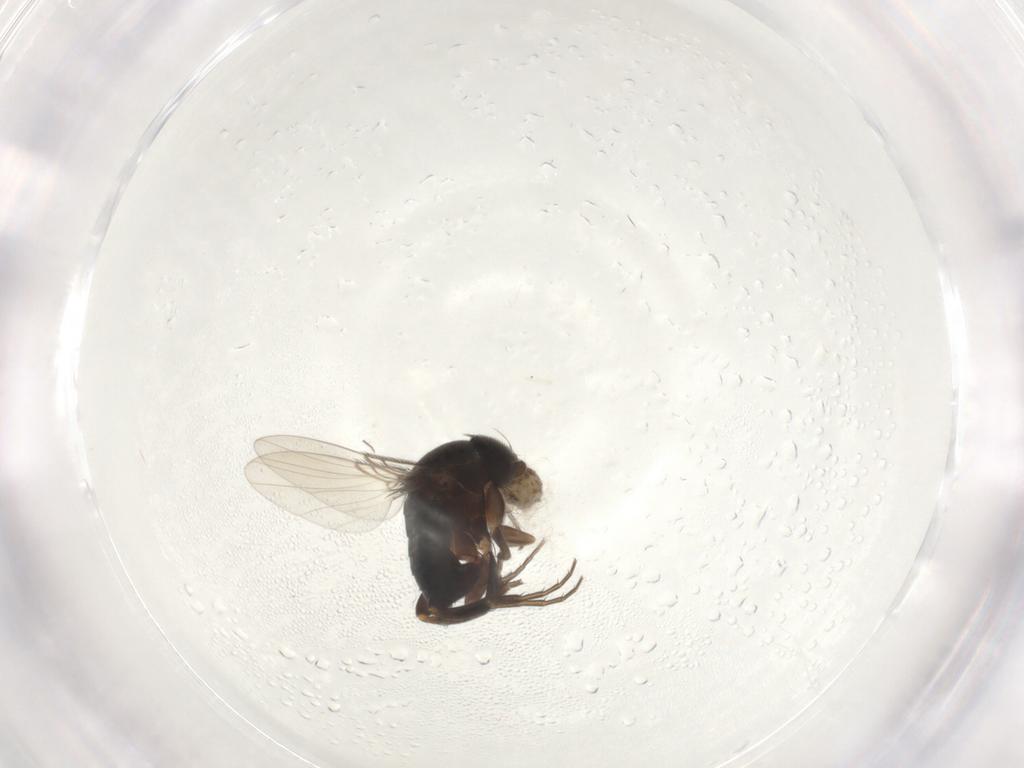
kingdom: Animalia
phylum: Arthropoda
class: Insecta
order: Diptera
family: Phoridae
